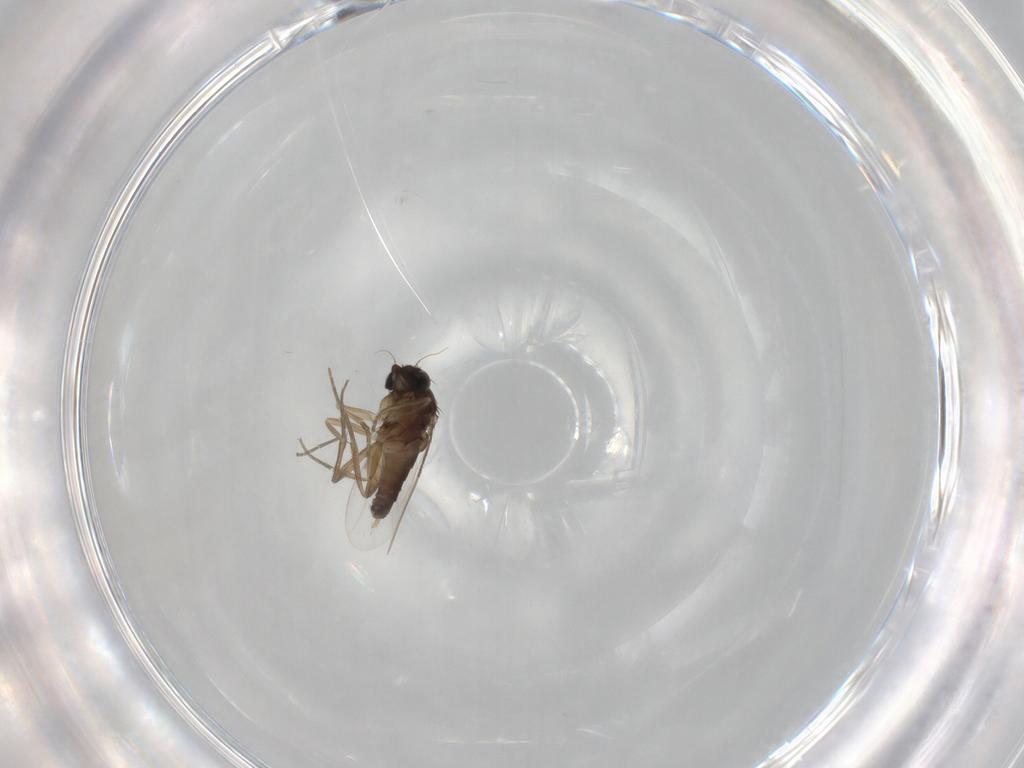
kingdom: Animalia
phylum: Arthropoda
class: Insecta
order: Diptera
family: Phoridae
